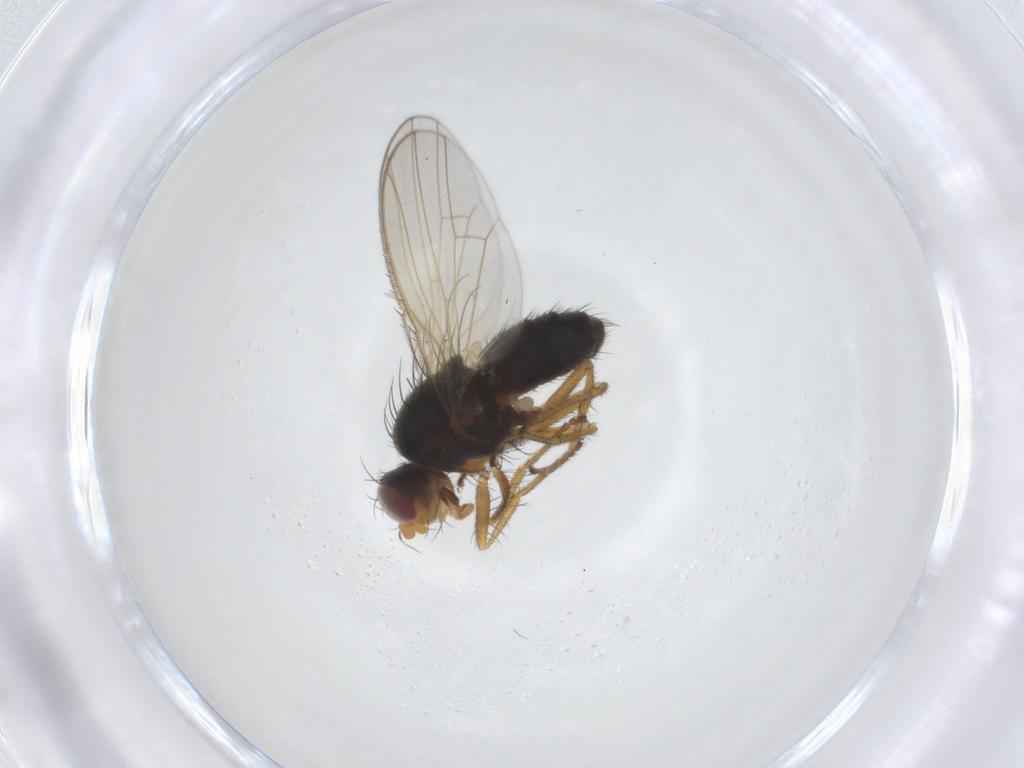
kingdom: Animalia
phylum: Arthropoda
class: Insecta
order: Diptera
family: Heleomyzidae
